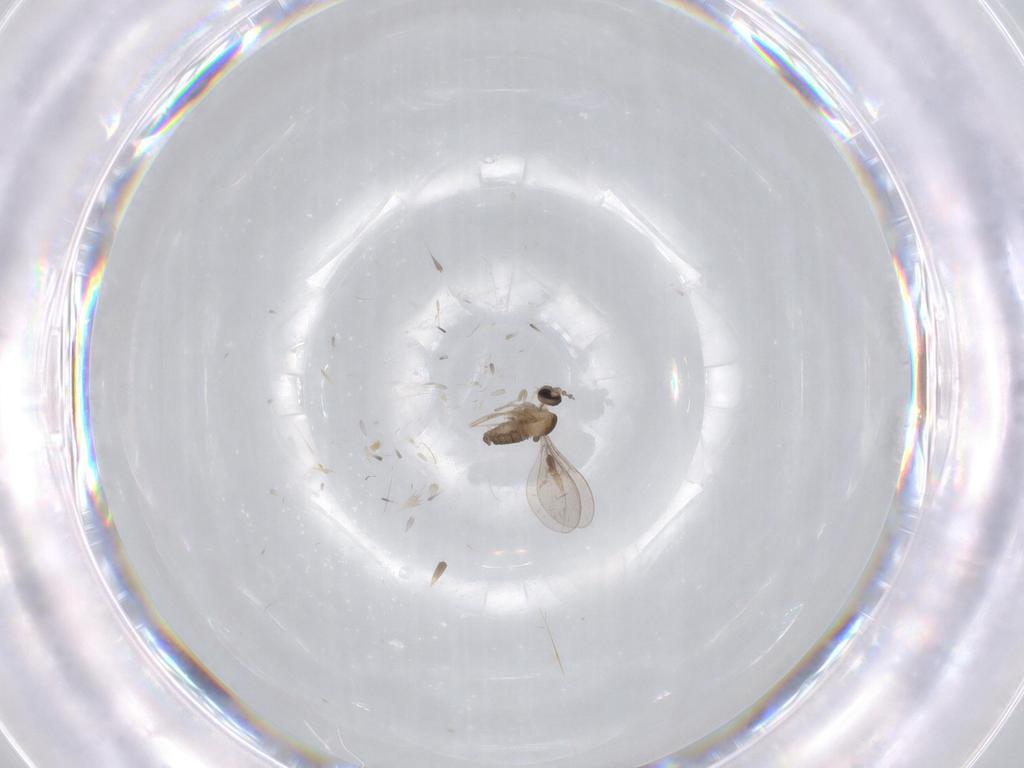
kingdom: Animalia
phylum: Arthropoda
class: Insecta
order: Diptera
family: Cecidomyiidae
